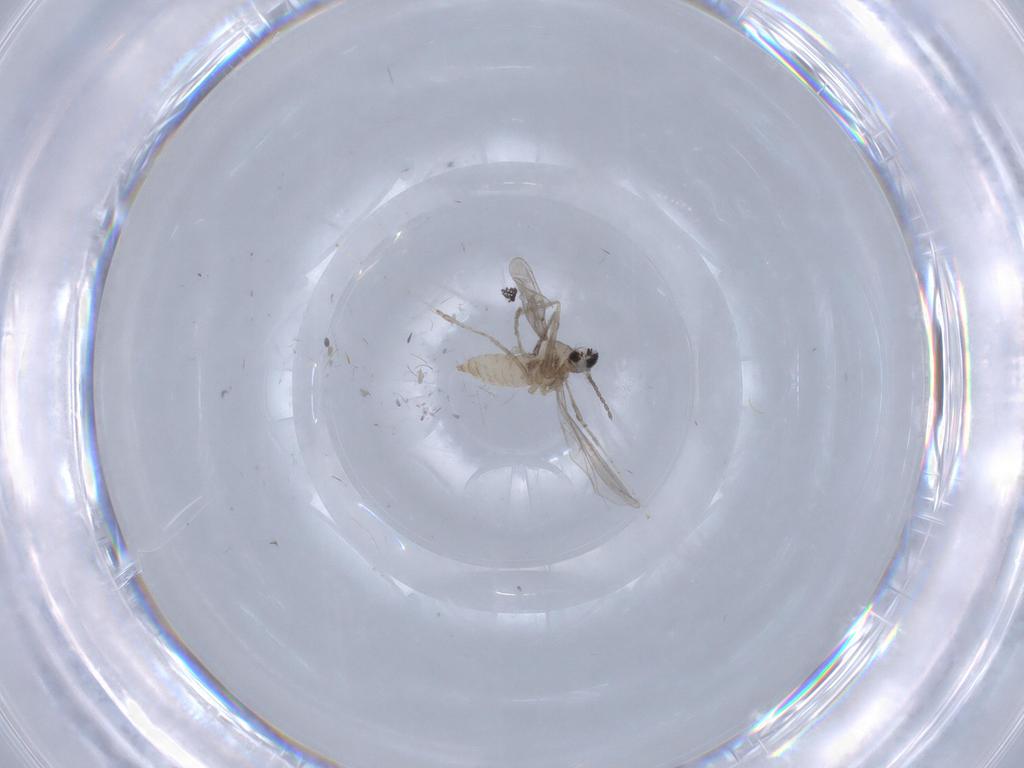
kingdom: Animalia
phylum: Arthropoda
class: Insecta
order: Diptera
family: Cecidomyiidae
